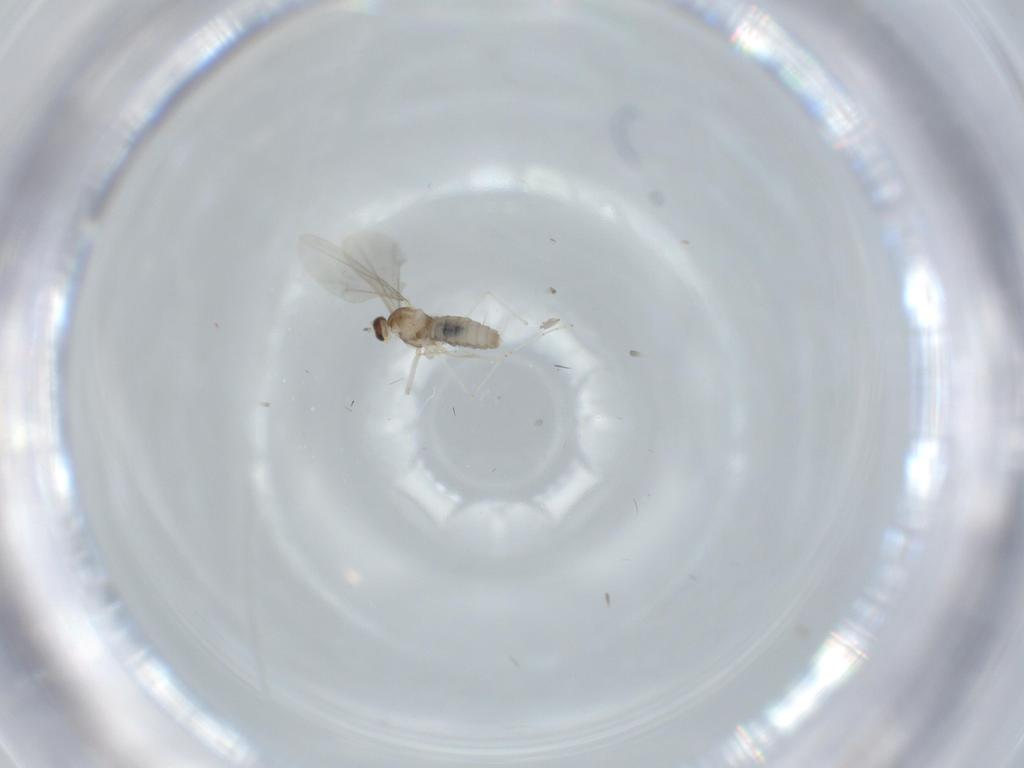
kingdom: Animalia
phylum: Arthropoda
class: Insecta
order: Diptera
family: Cecidomyiidae
